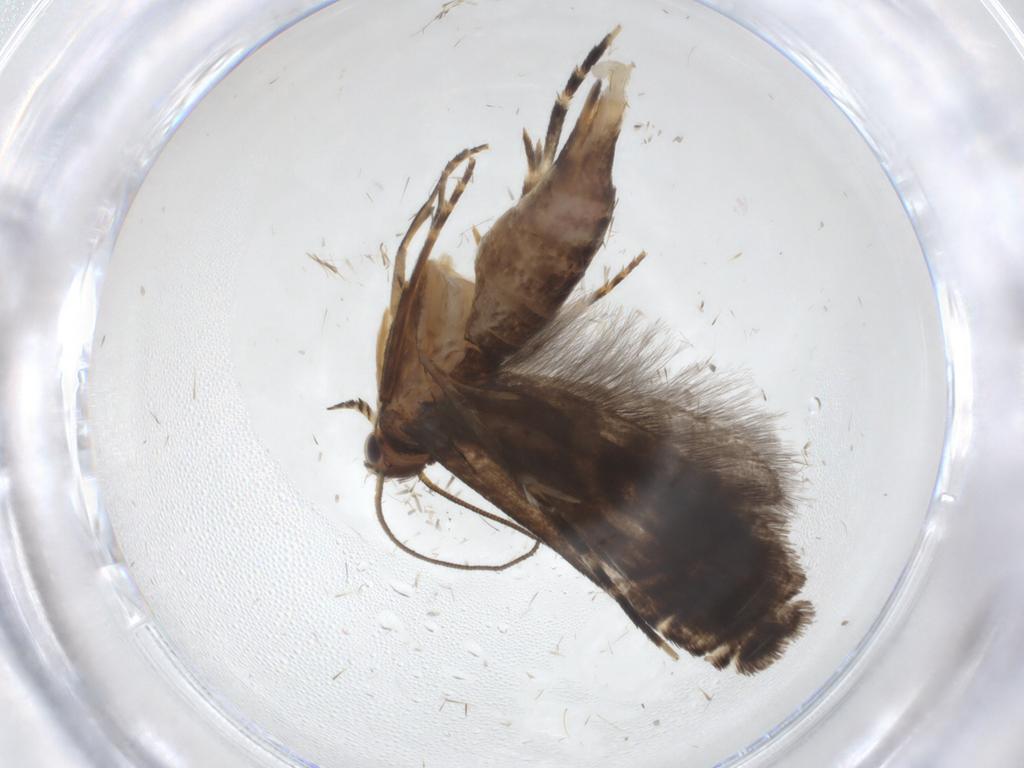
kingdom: Animalia
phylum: Arthropoda
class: Insecta
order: Lepidoptera
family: Glyphipterigidae
